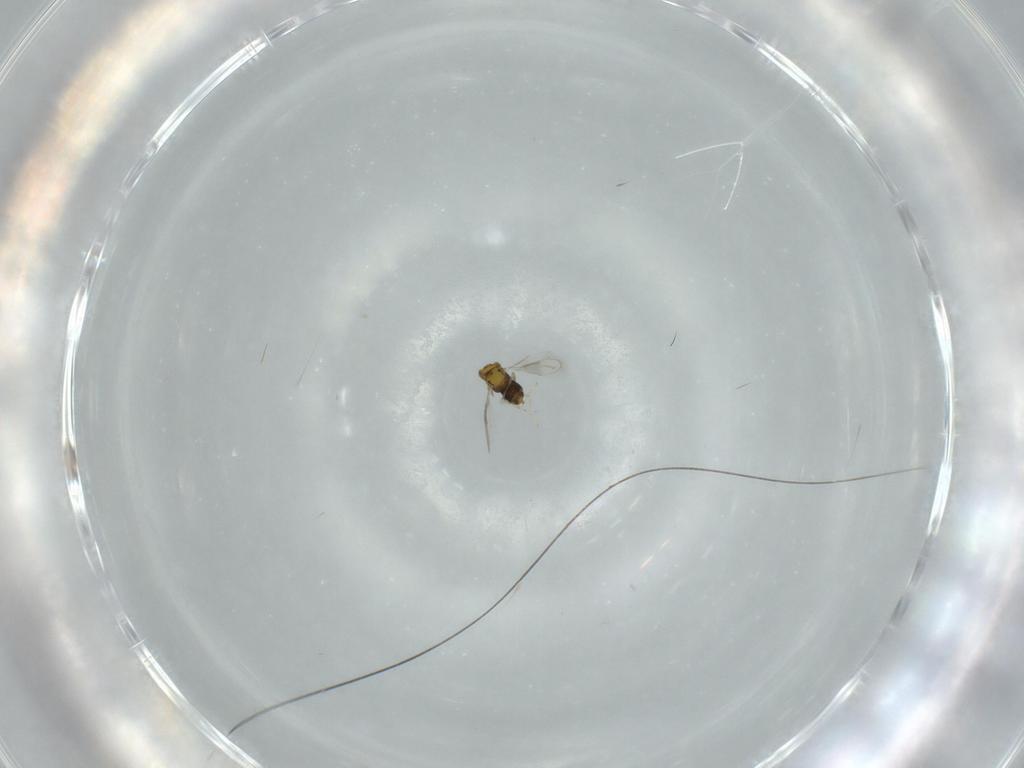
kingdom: Animalia
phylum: Arthropoda
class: Insecta
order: Hymenoptera
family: Aphelinidae
